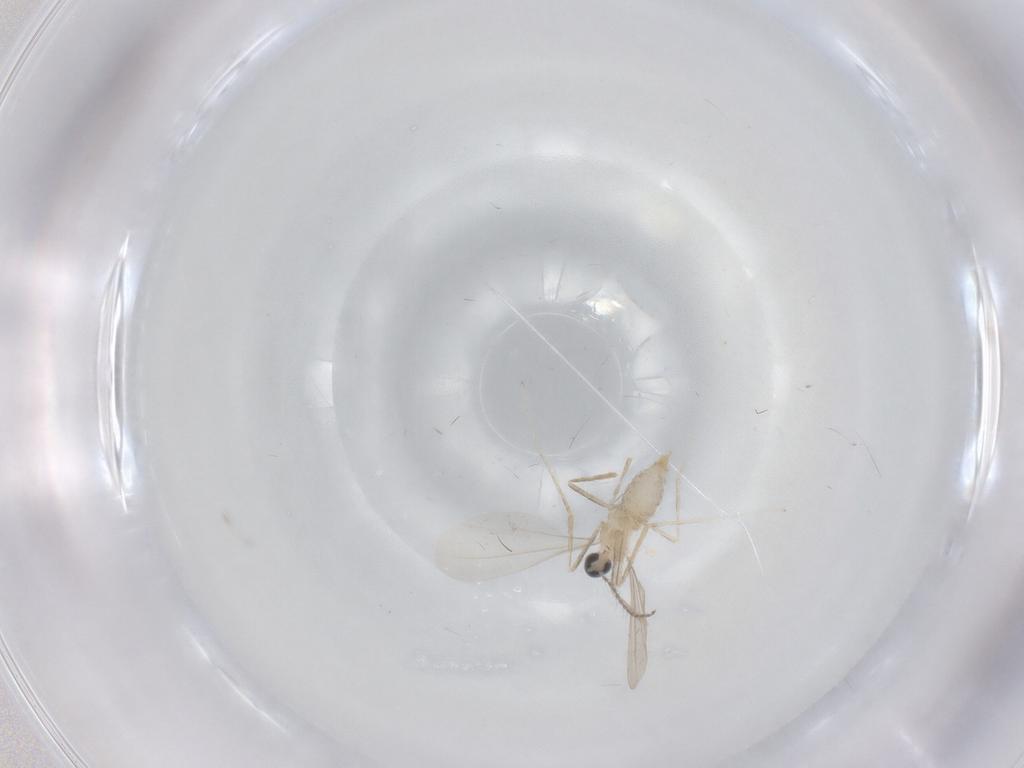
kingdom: Animalia
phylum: Arthropoda
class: Insecta
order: Diptera
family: Cecidomyiidae
